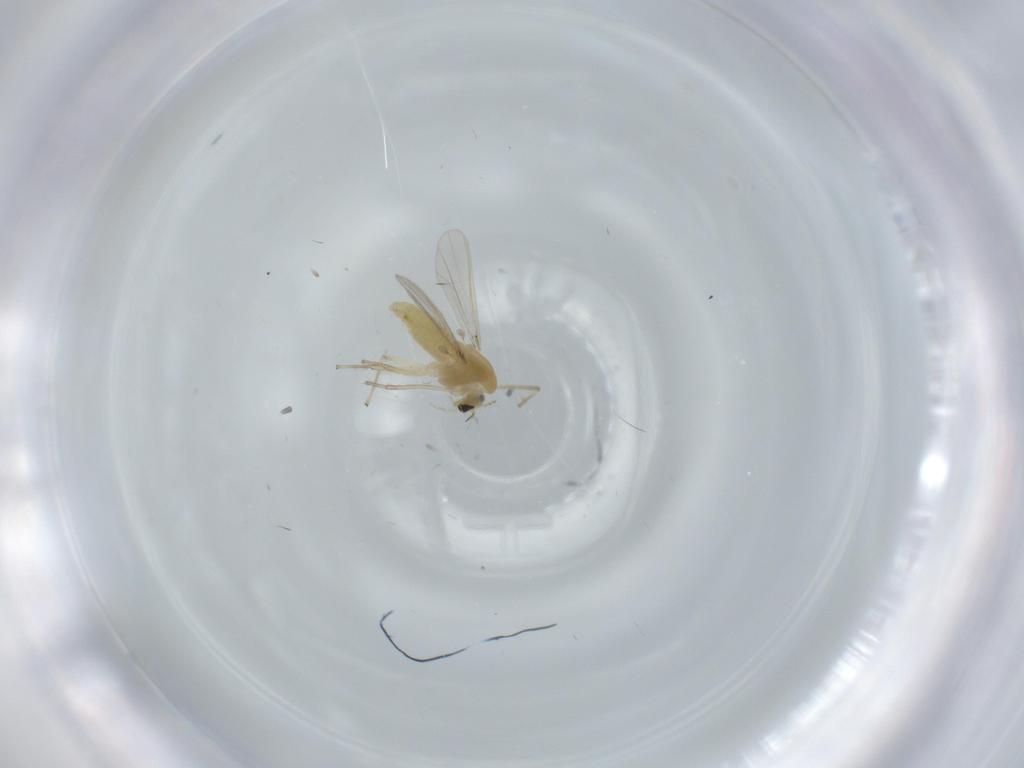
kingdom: Animalia
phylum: Arthropoda
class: Insecta
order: Diptera
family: Chironomidae
